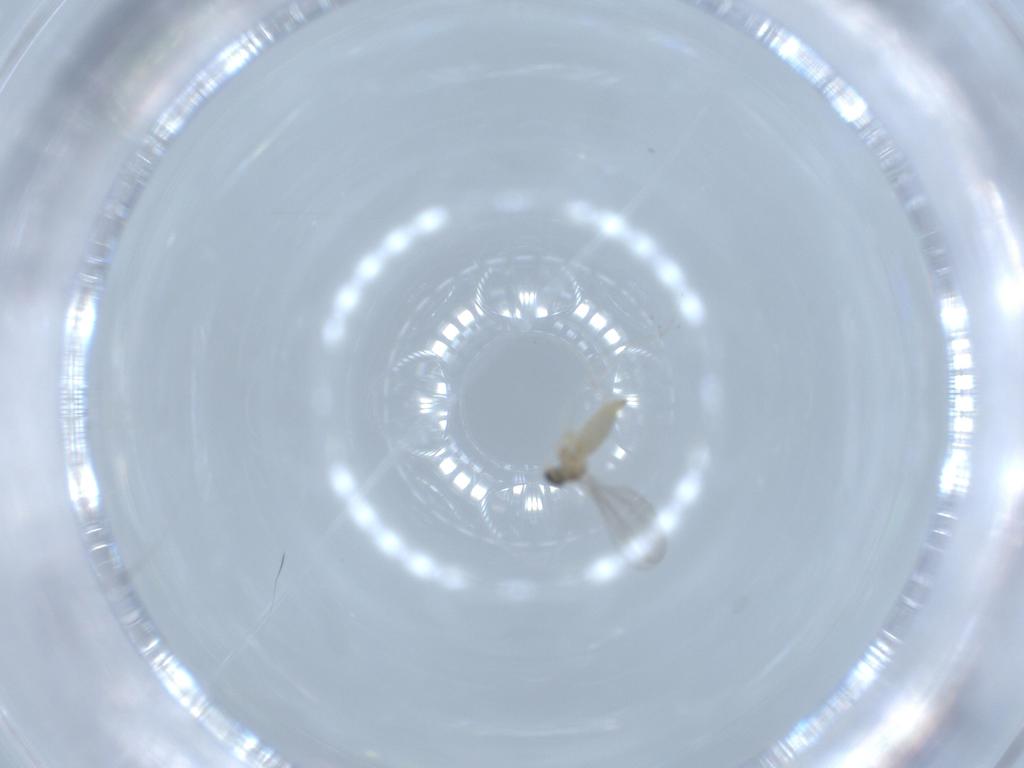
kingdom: Animalia
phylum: Arthropoda
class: Insecta
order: Diptera
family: Cecidomyiidae
